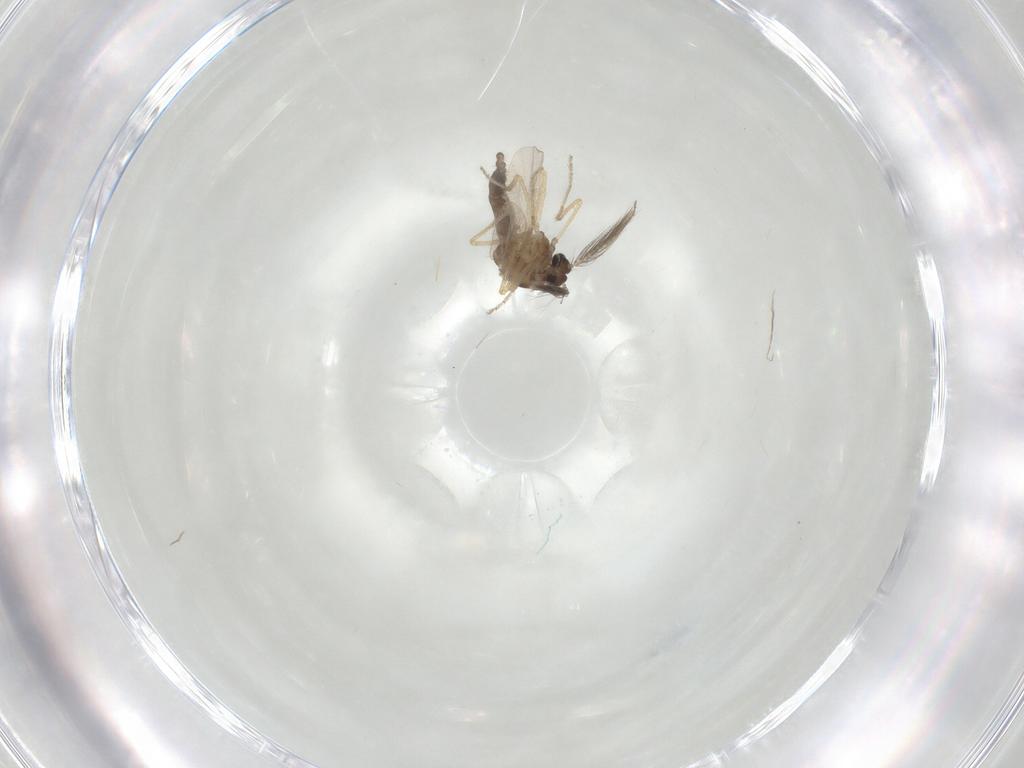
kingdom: Animalia
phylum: Arthropoda
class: Insecta
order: Diptera
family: Ceratopogonidae
